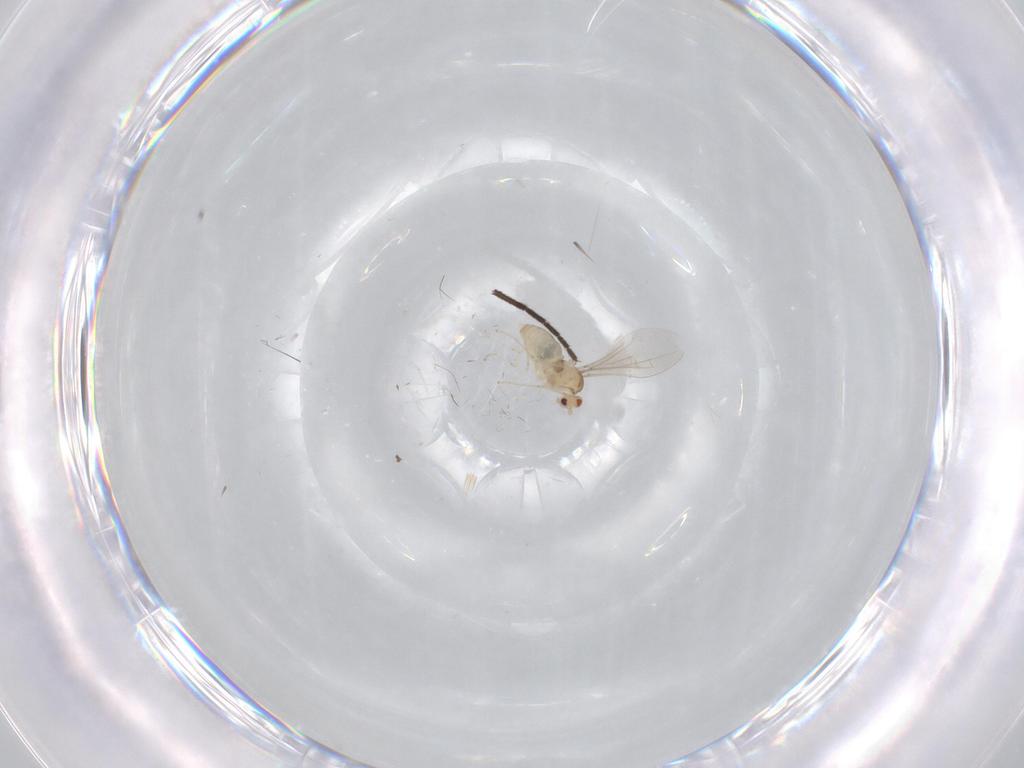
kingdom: Animalia
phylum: Arthropoda
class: Insecta
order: Diptera
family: Cecidomyiidae
